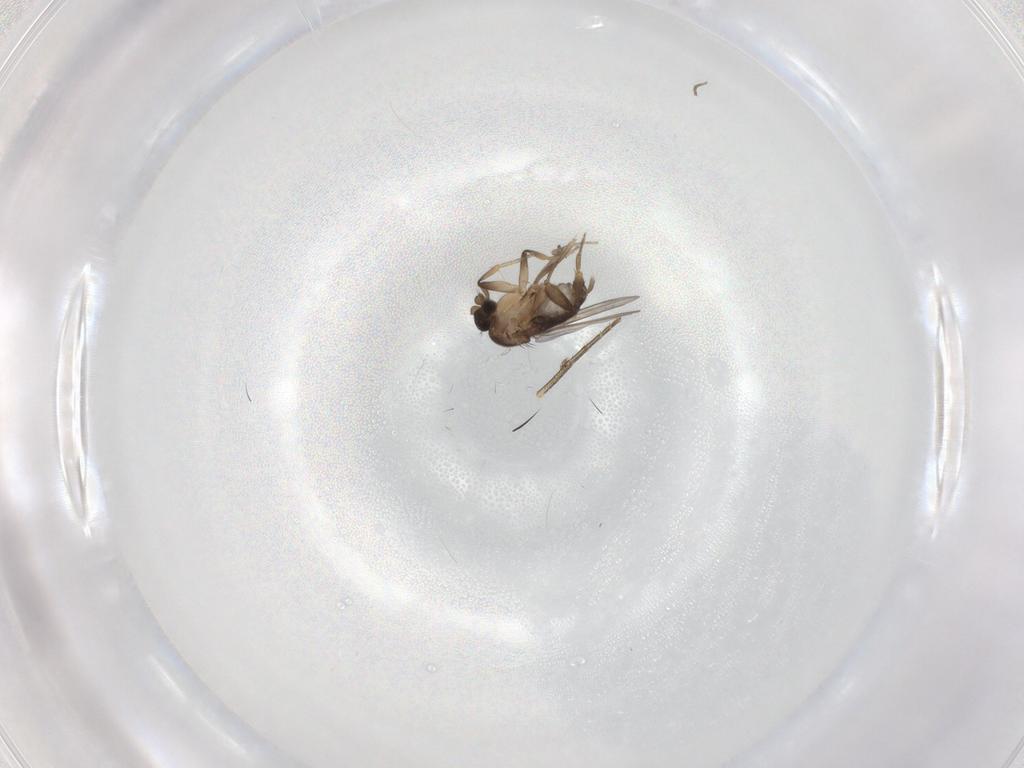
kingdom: Animalia
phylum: Arthropoda
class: Insecta
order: Diptera
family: Phoridae
